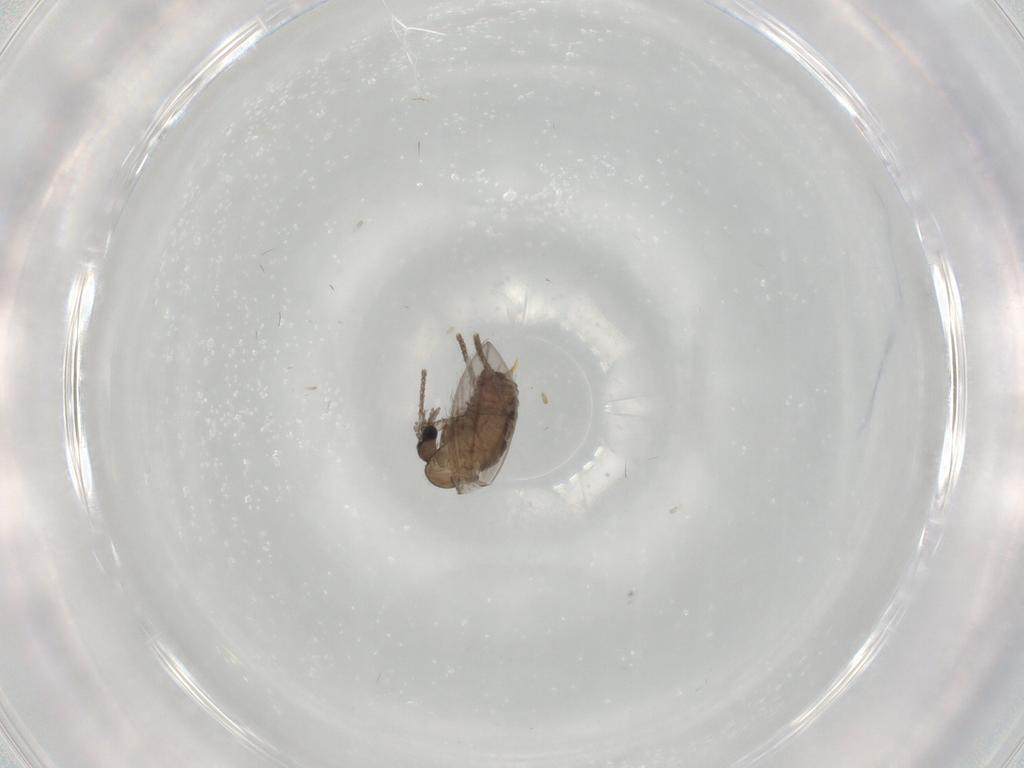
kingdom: Animalia
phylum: Arthropoda
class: Insecta
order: Diptera
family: Psychodidae
